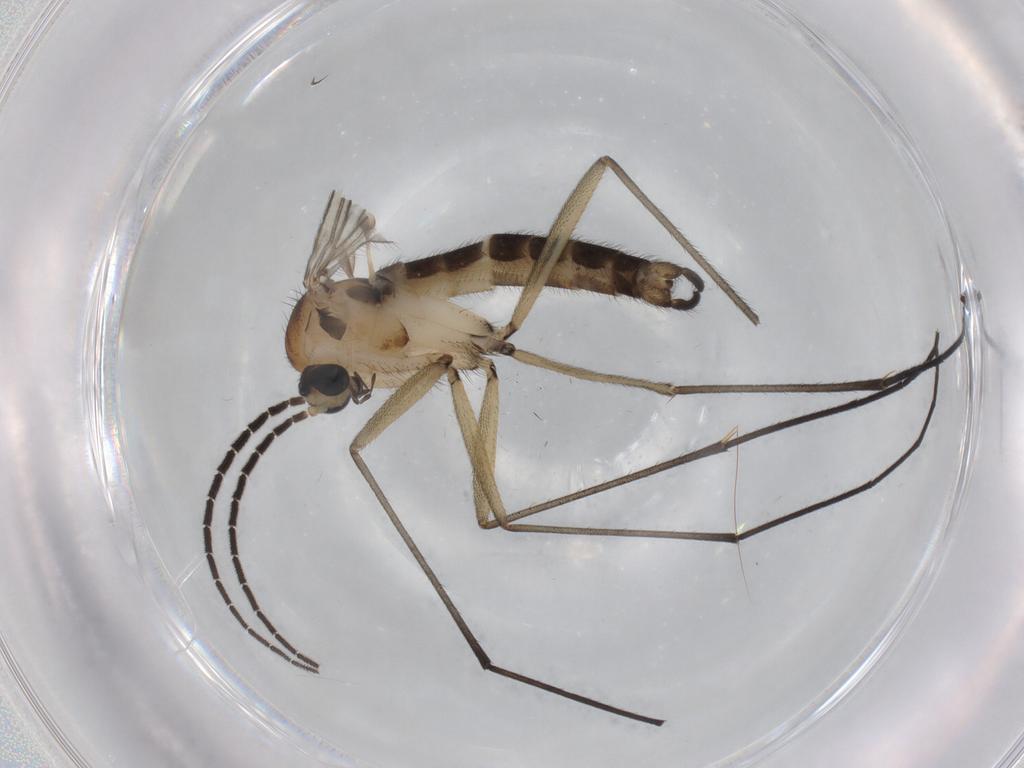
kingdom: Animalia
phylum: Arthropoda
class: Insecta
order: Diptera
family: Sciaridae
